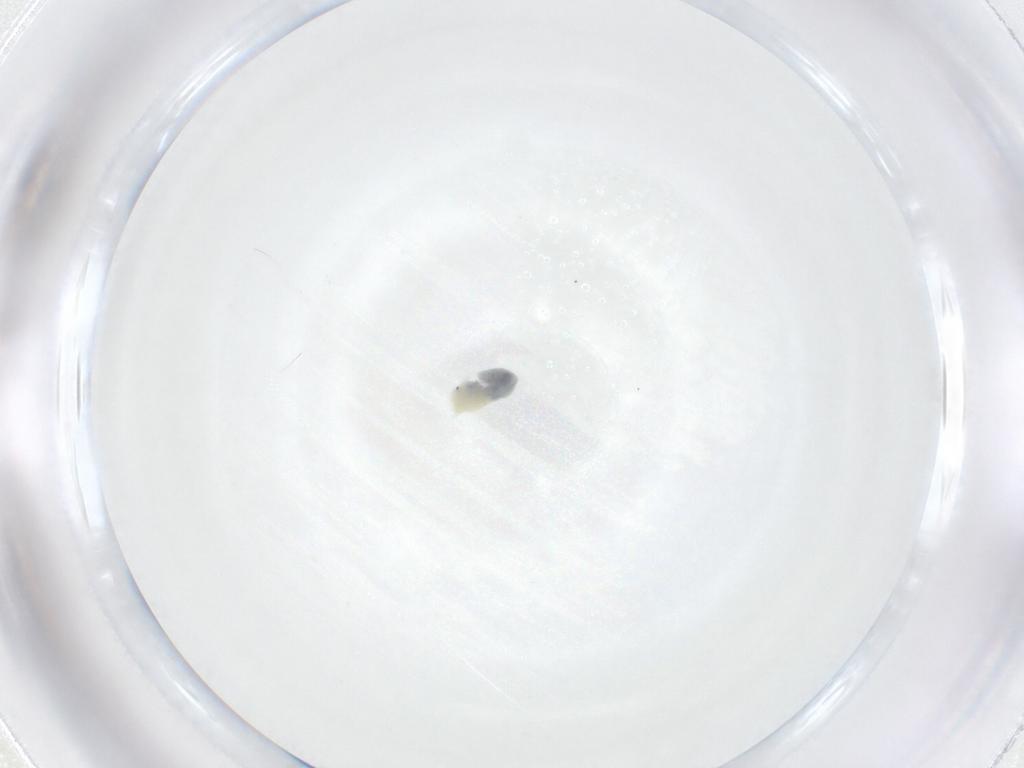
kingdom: Animalia
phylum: Arthropoda
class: Arachnida
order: Trombidiformes
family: Eupodidae
